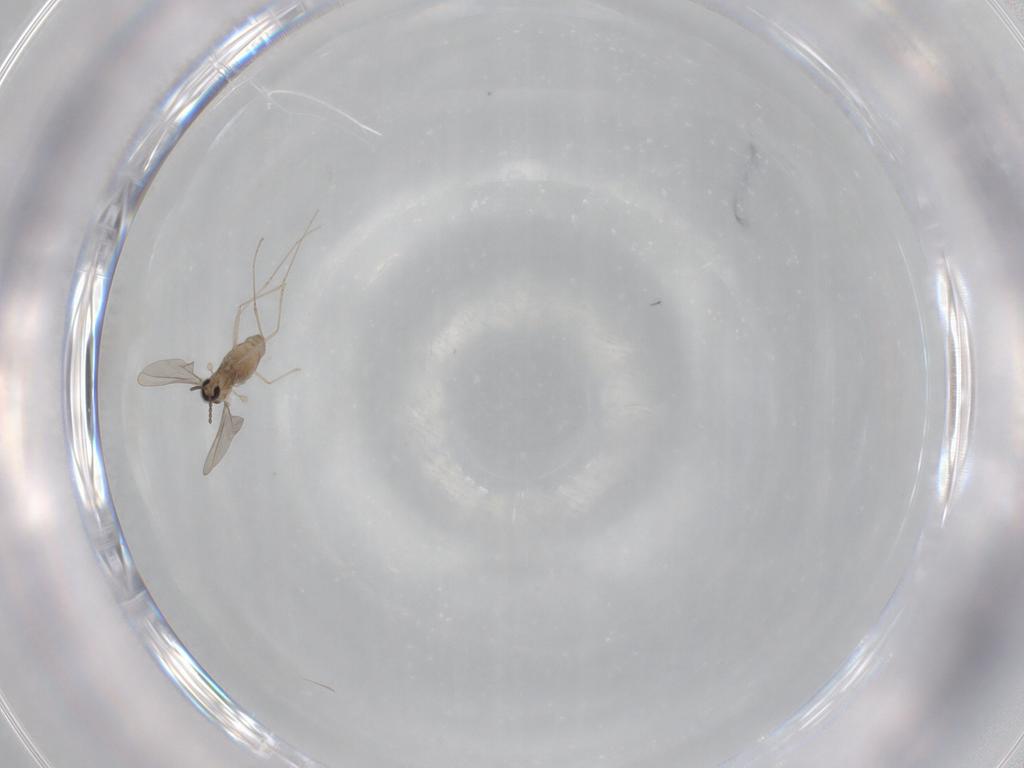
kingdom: Animalia
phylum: Arthropoda
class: Insecta
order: Diptera
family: Cecidomyiidae
